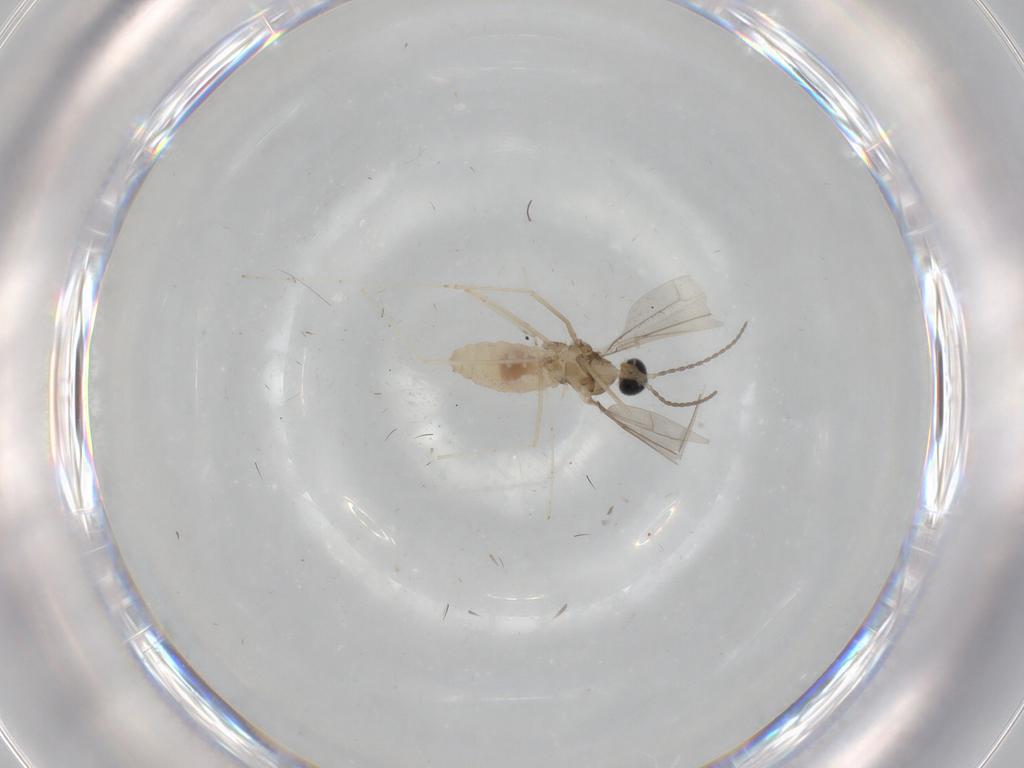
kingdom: Animalia
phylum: Arthropoda
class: Insecta
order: Diptera
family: Cecidomyiidae
